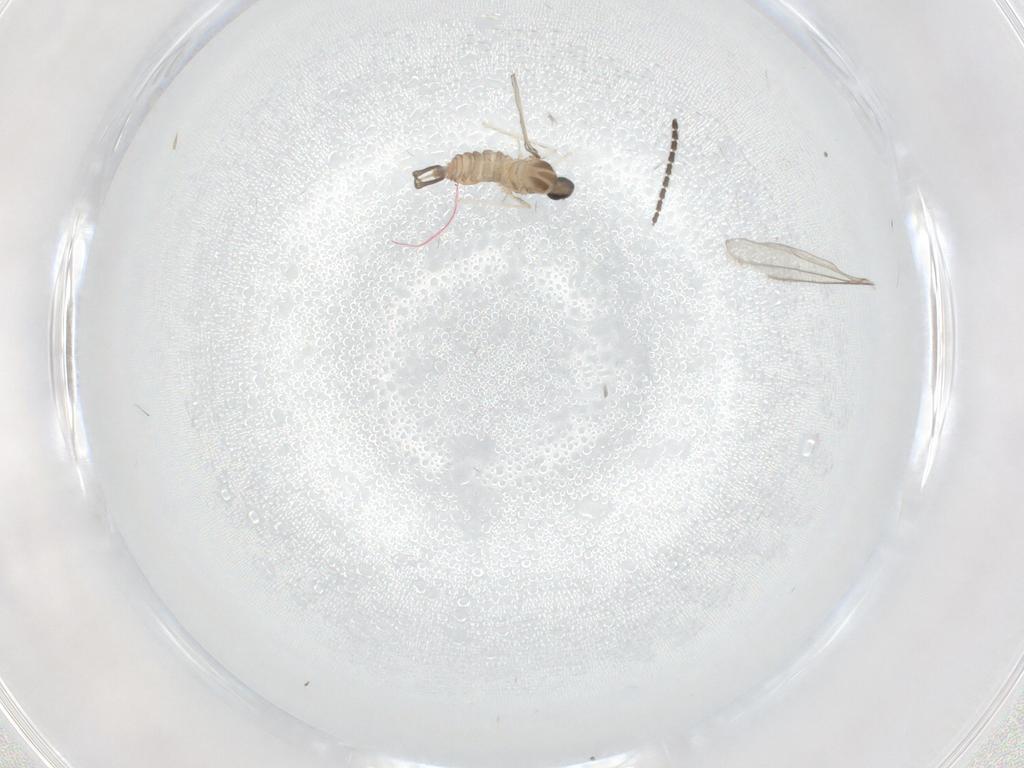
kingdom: Animalia
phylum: Arthropoda
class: Insecta
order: Diptera
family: Cecidomyiidae
